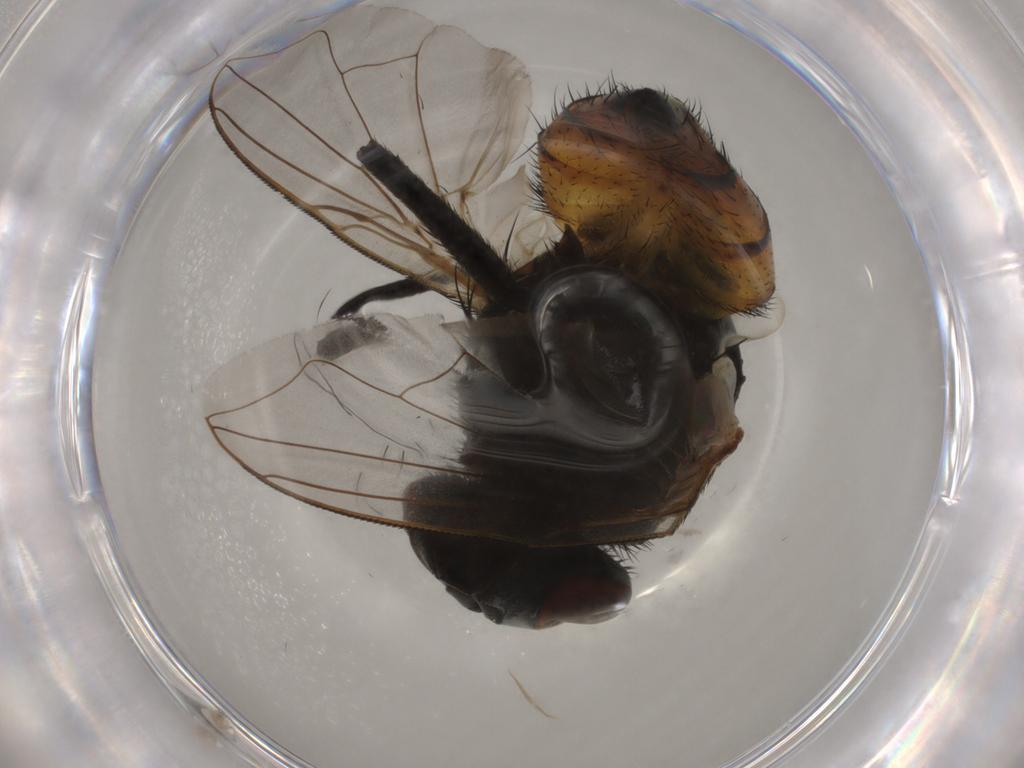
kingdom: Animalia
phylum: Arthropoda
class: Insecta
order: Diptera
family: Muscidae
